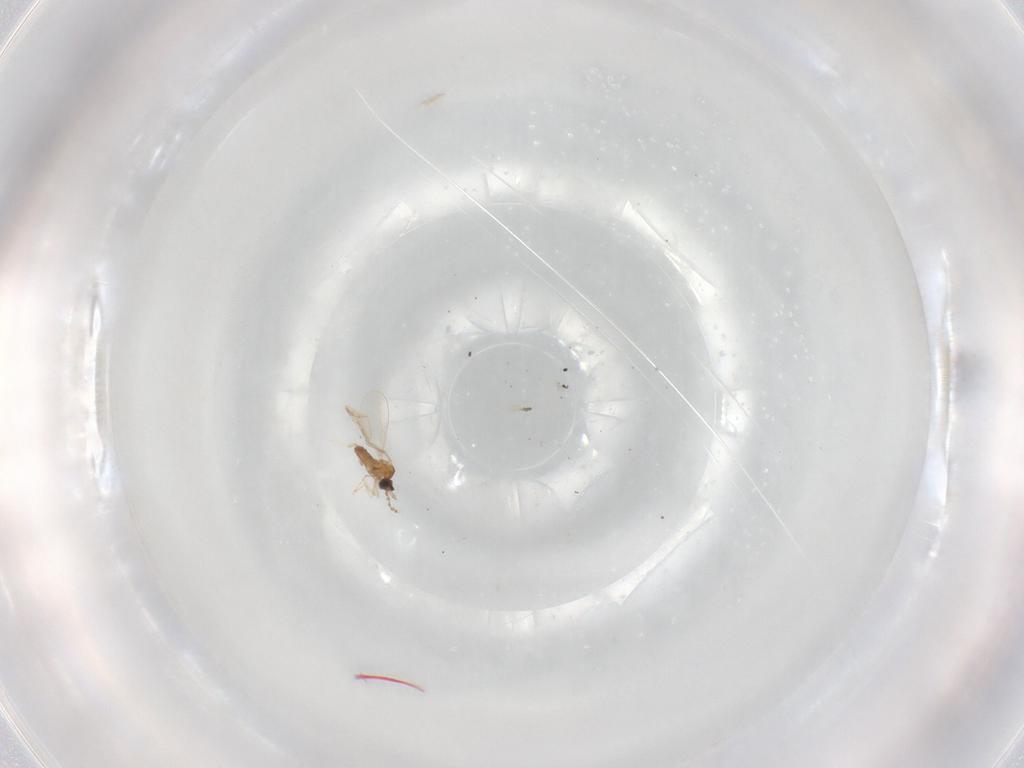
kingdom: Animalia
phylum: Arthropoda
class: Insecta
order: Diptera
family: Cecidomyiidae
